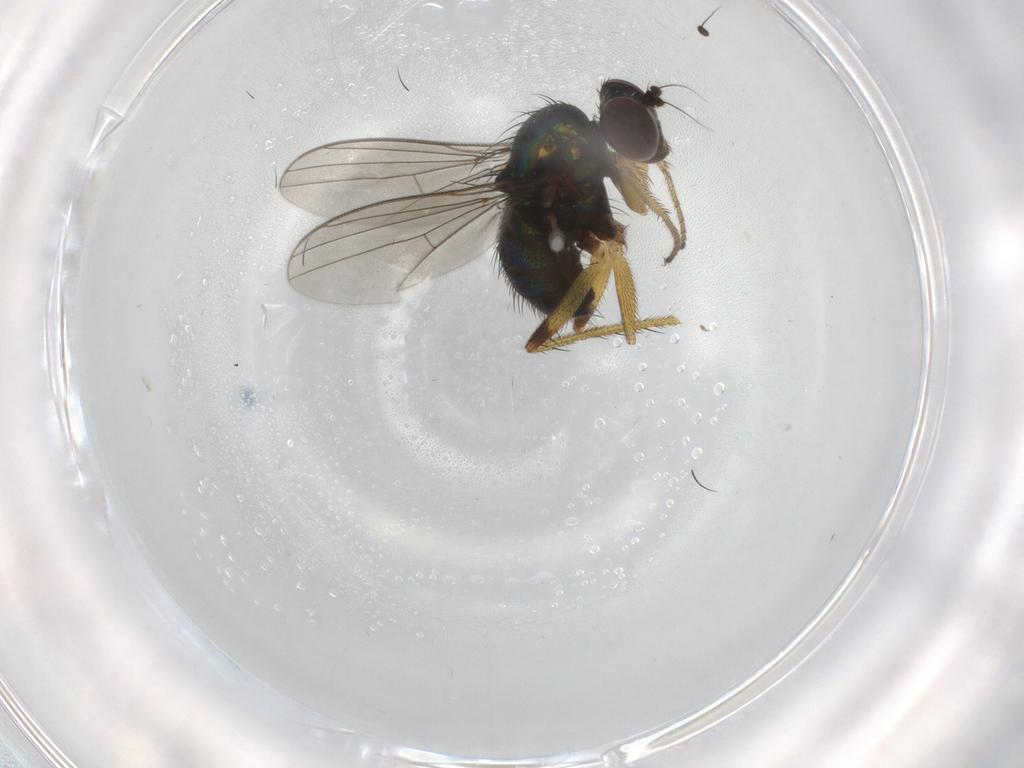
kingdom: Animalia
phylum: Arthropoda
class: Insecta
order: Diptera
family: Dolichopodidae
